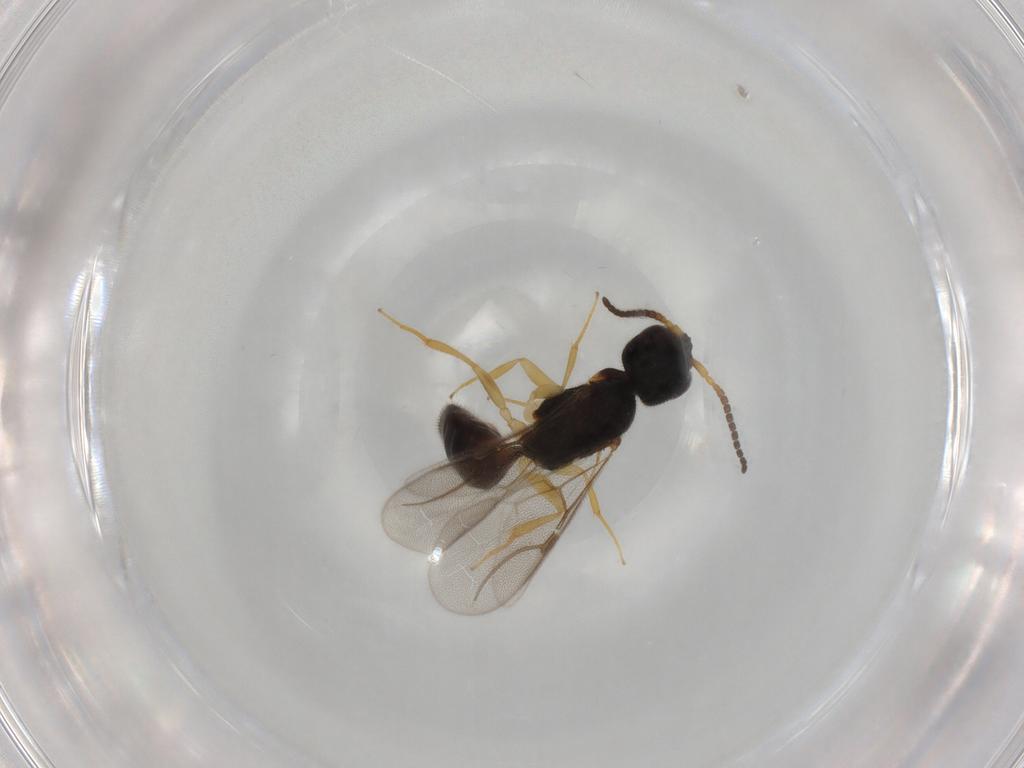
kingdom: Animalia
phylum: Arthropoda
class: Insecta
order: Hymenoptera
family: Bethylidae
